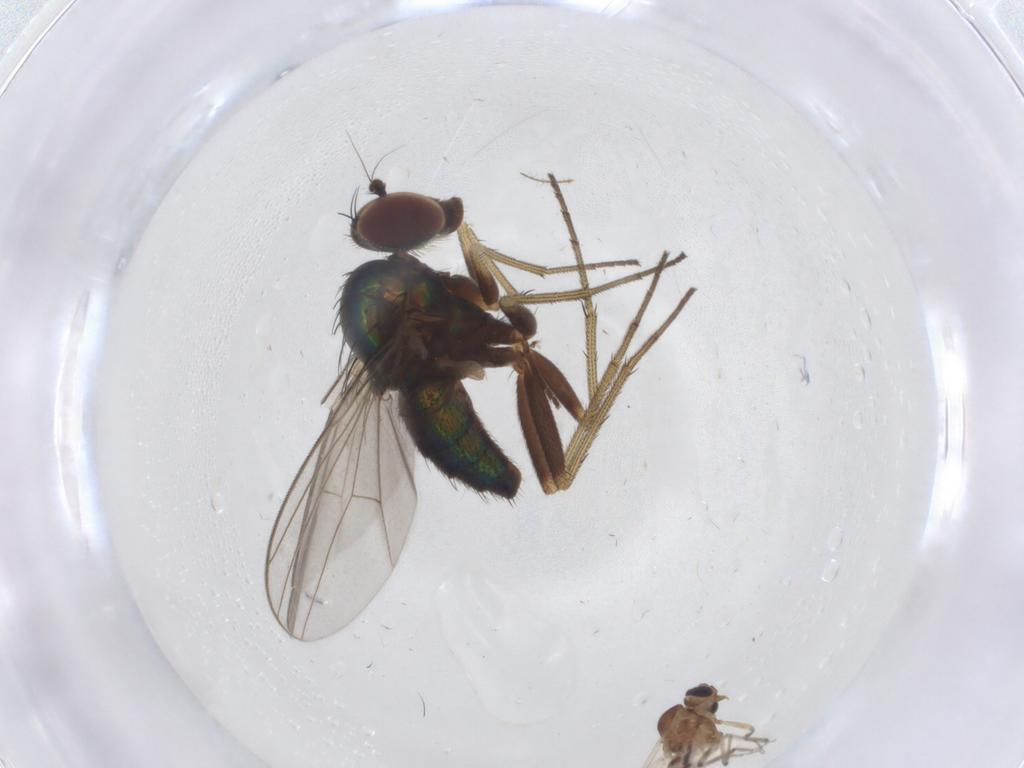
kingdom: Animalia
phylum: Arthropoda
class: Insecta
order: Diptera
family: Dolichopodidae
